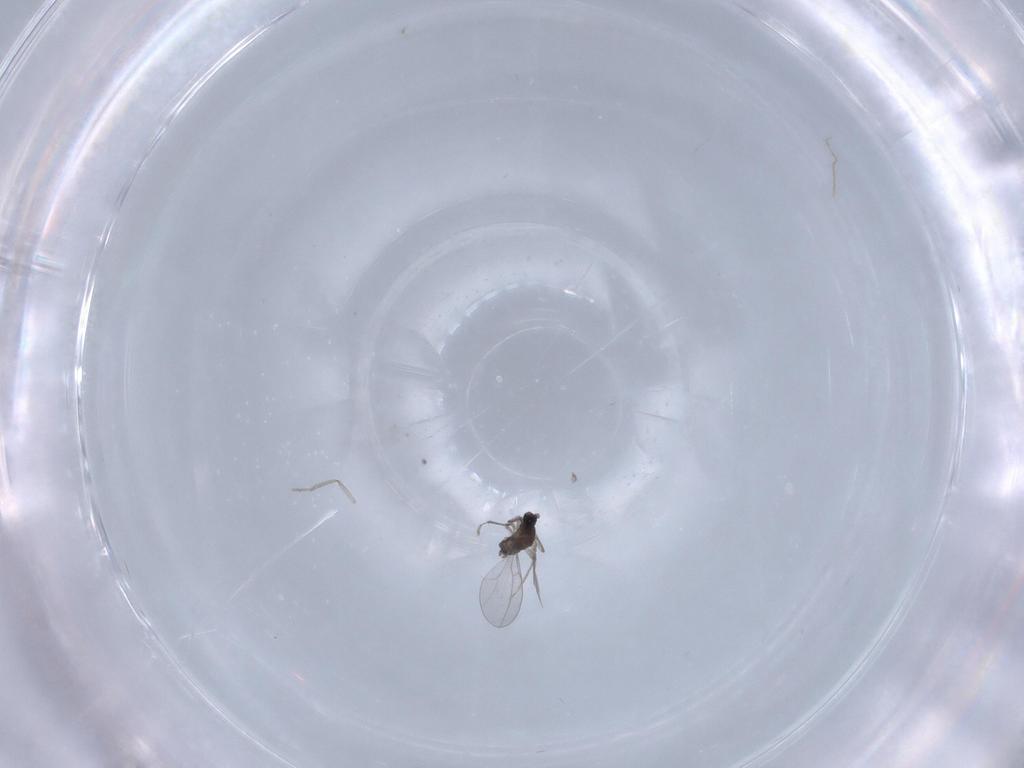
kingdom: Animalia
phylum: Arthropoda
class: Insecta
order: Diptera
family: Cecidomyiidae
